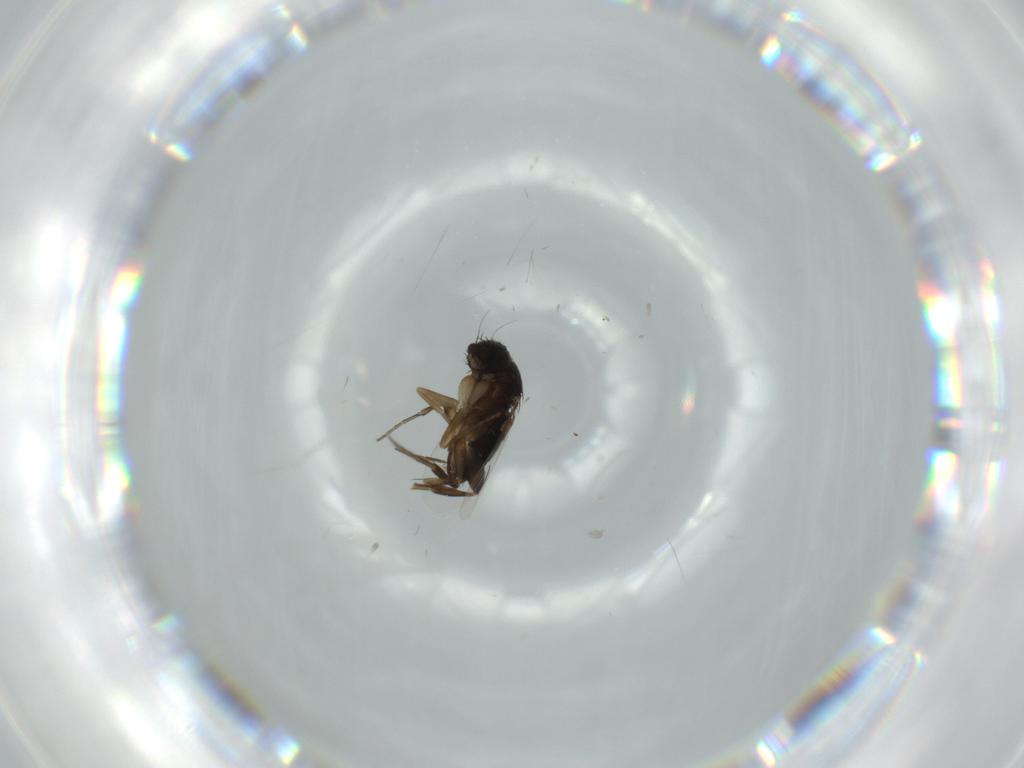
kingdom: Animalia
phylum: Arthropoda
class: Insecta
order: Diptera
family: Phoridae
